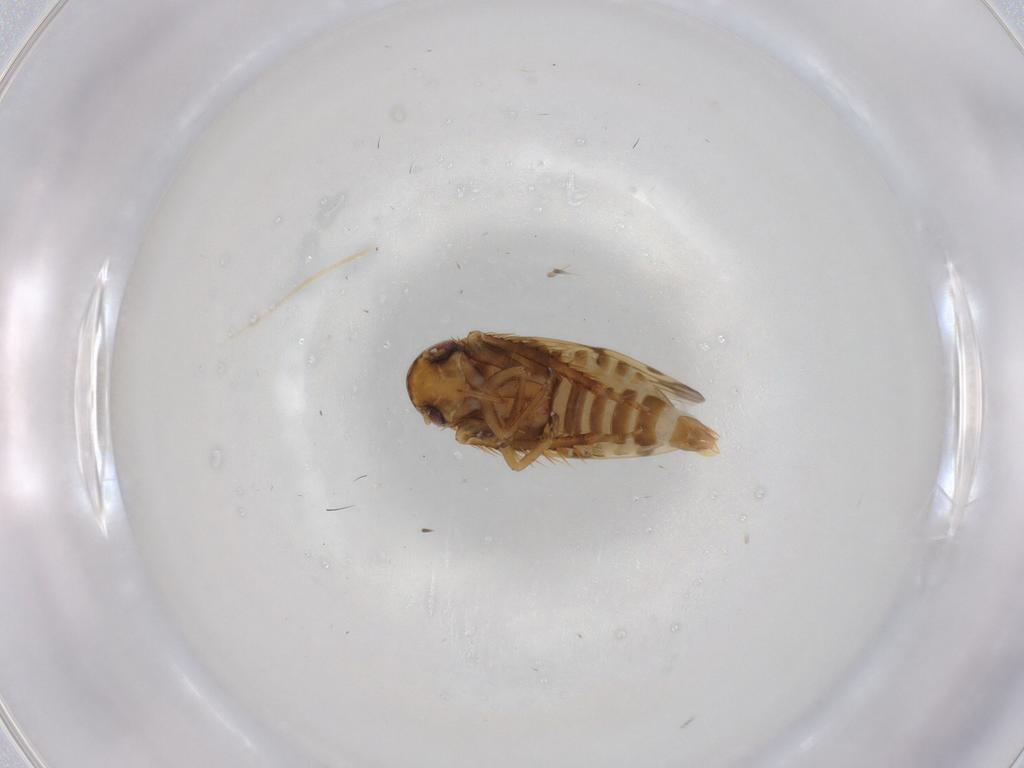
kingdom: Animalia
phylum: Arthropoda
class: Insecta
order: Hemiptera
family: Cicadellidae
